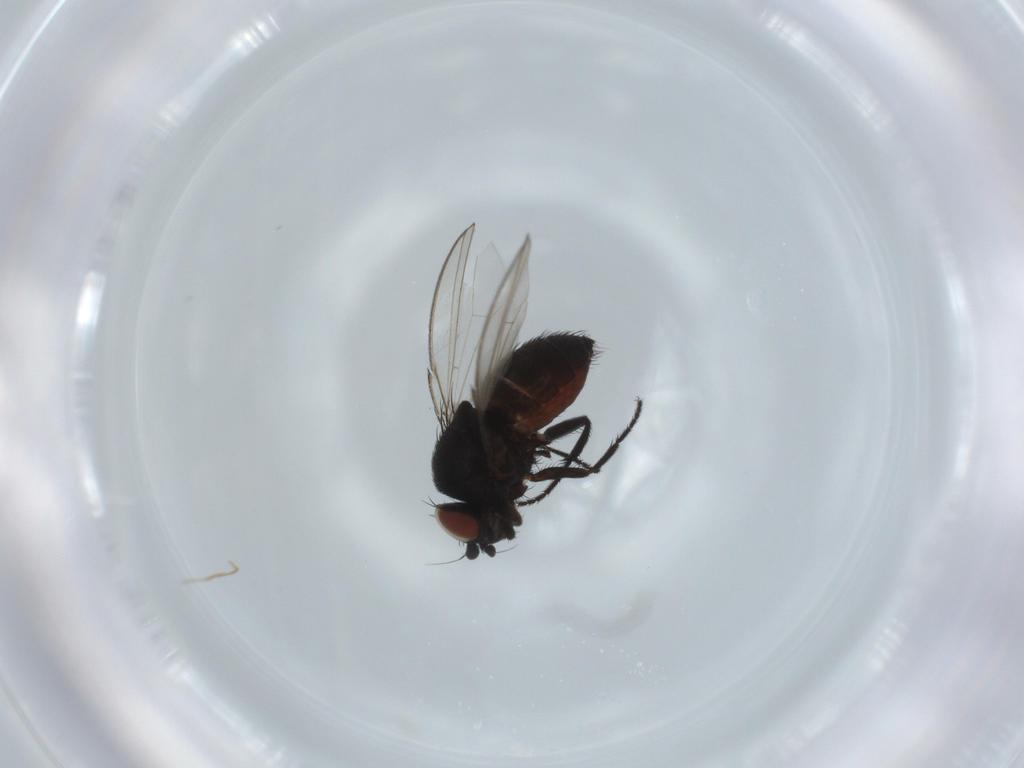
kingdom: Animalia
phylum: Arthropoda
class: Insecta
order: Diptera
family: Milichiidae
